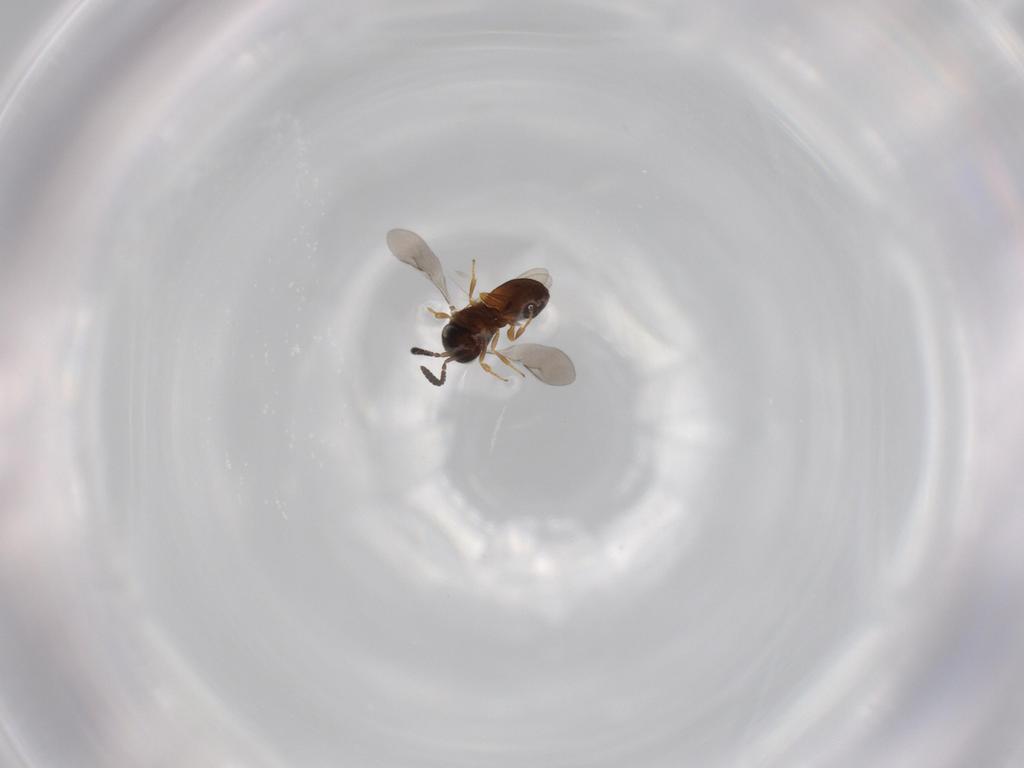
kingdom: Animalia
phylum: Arthropoda
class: Insecta
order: Hymenoptera
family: Scelionidae
